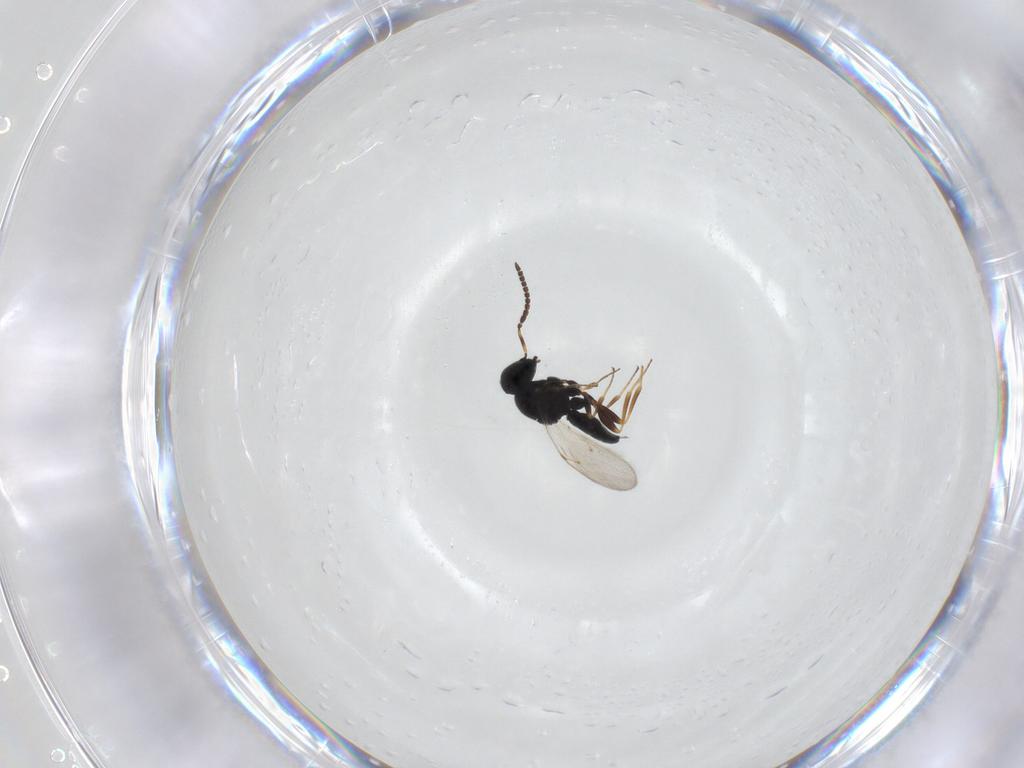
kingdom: Animalia
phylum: Arthropoda
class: Insecta
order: Hymenoptera
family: Scelionidae
